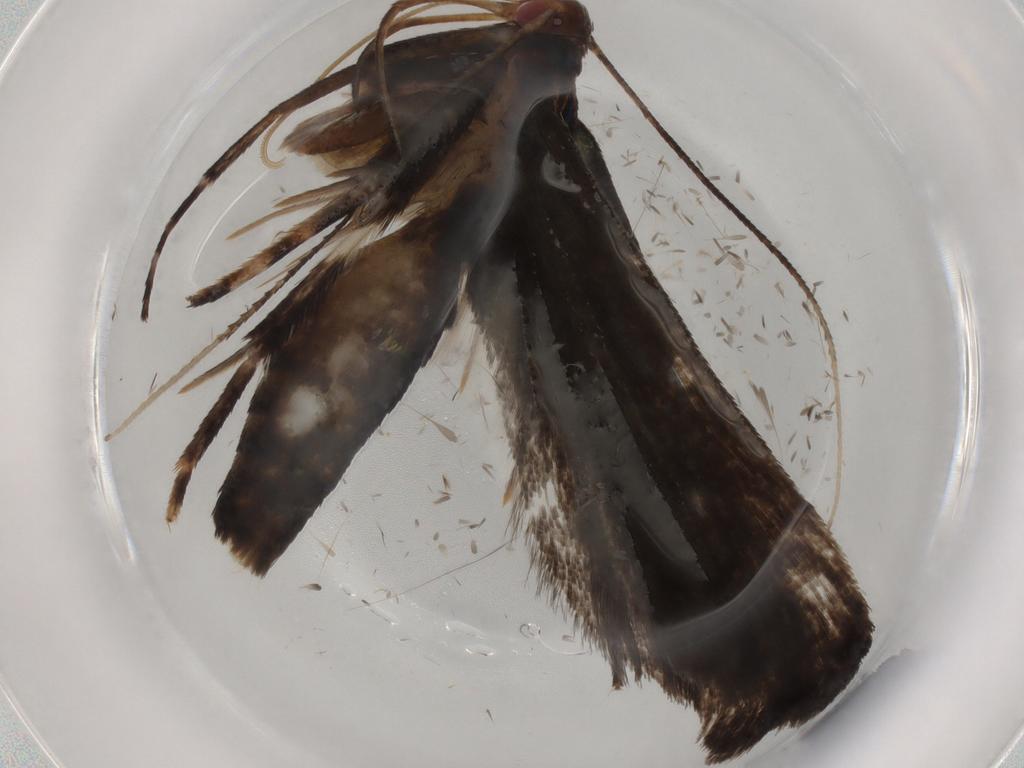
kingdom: Animalia
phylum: Arthropoda
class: Insecta
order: Lepidoptera
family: Gelechiidae
